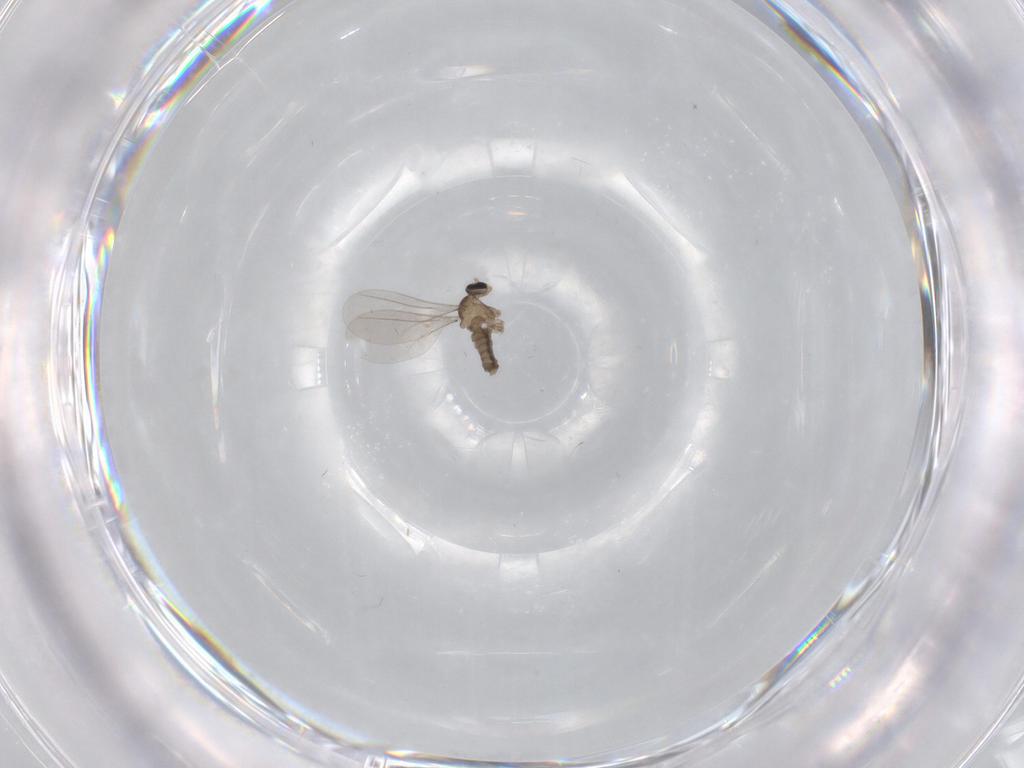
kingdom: Animalia
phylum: Arthropoda
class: Insecta
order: Diptera
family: Cecidomyiidae
